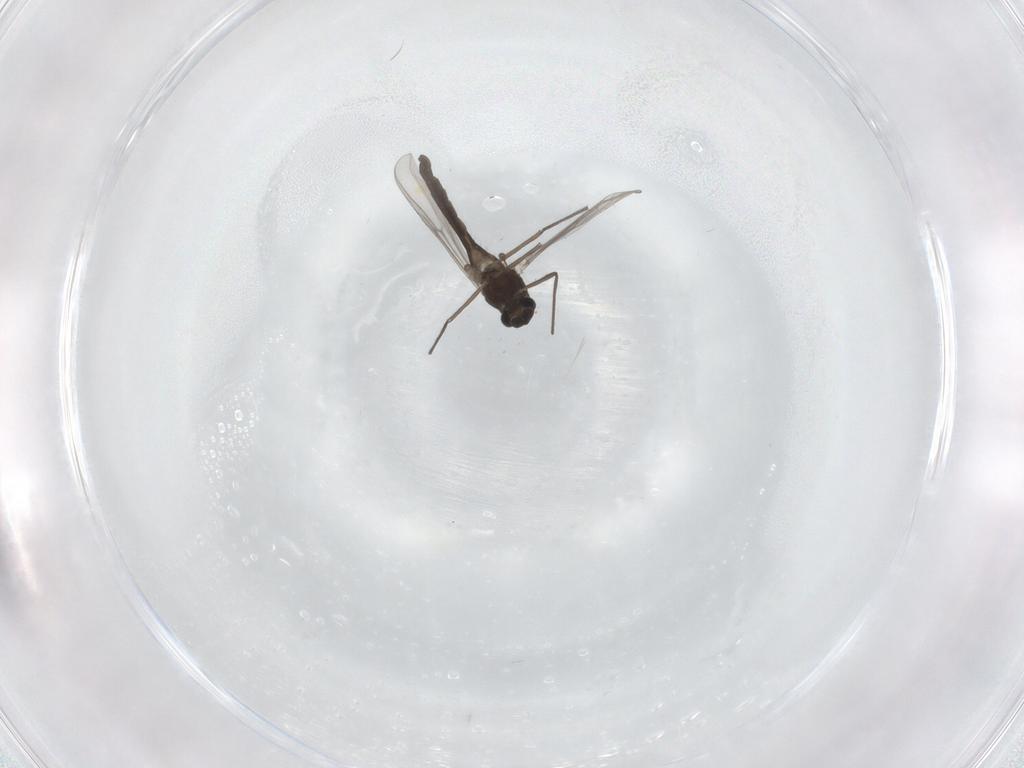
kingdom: Animalia
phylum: Arthropoda
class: Insecta
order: Diptera
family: Chironomidae
